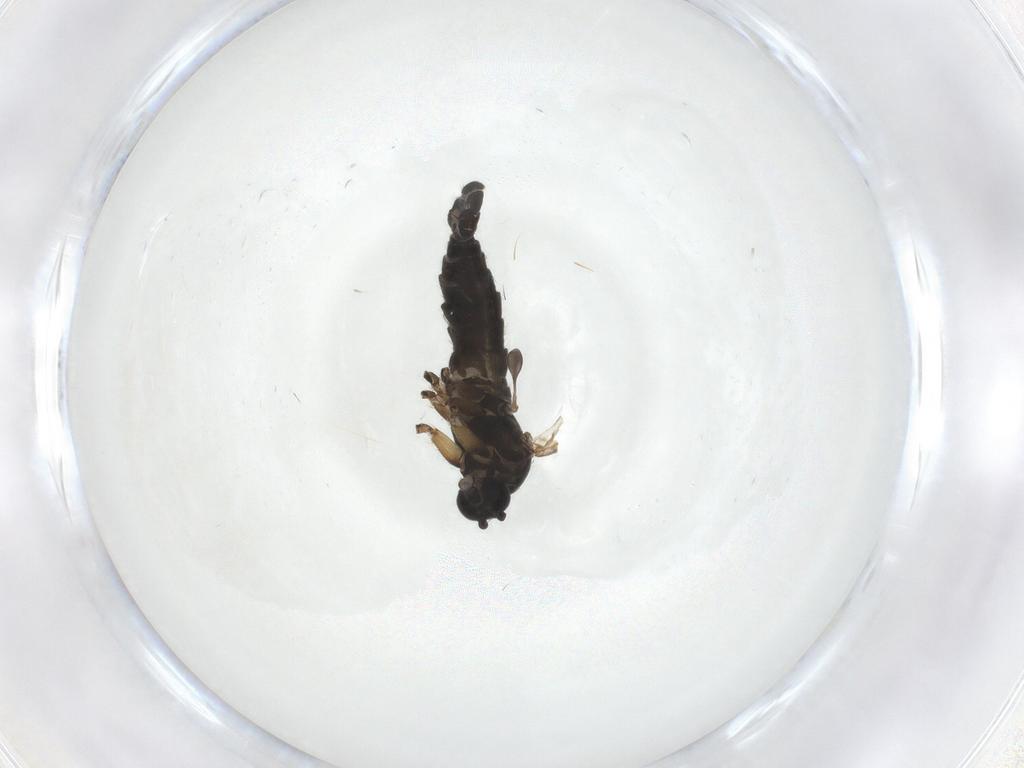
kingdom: Animalia
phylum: Arthropoda
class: Insecta
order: Diptera
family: Sciaridae
